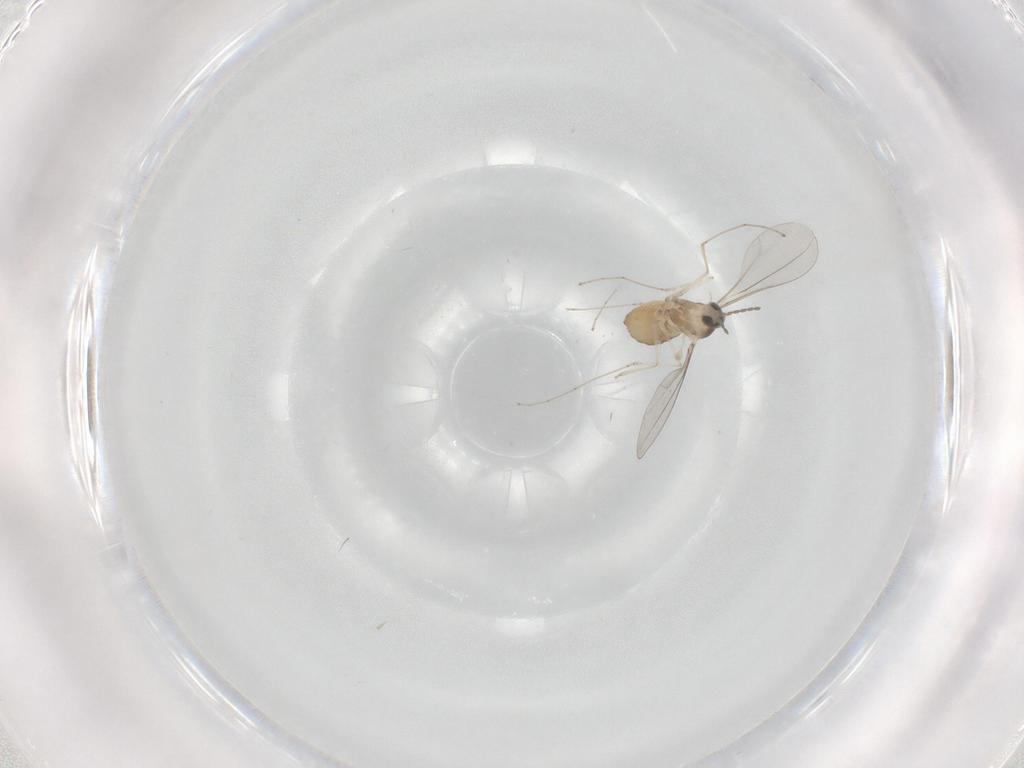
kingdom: Animalia
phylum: Arthropoda
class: Insecta
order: Diptera
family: Cecidomyiidae
